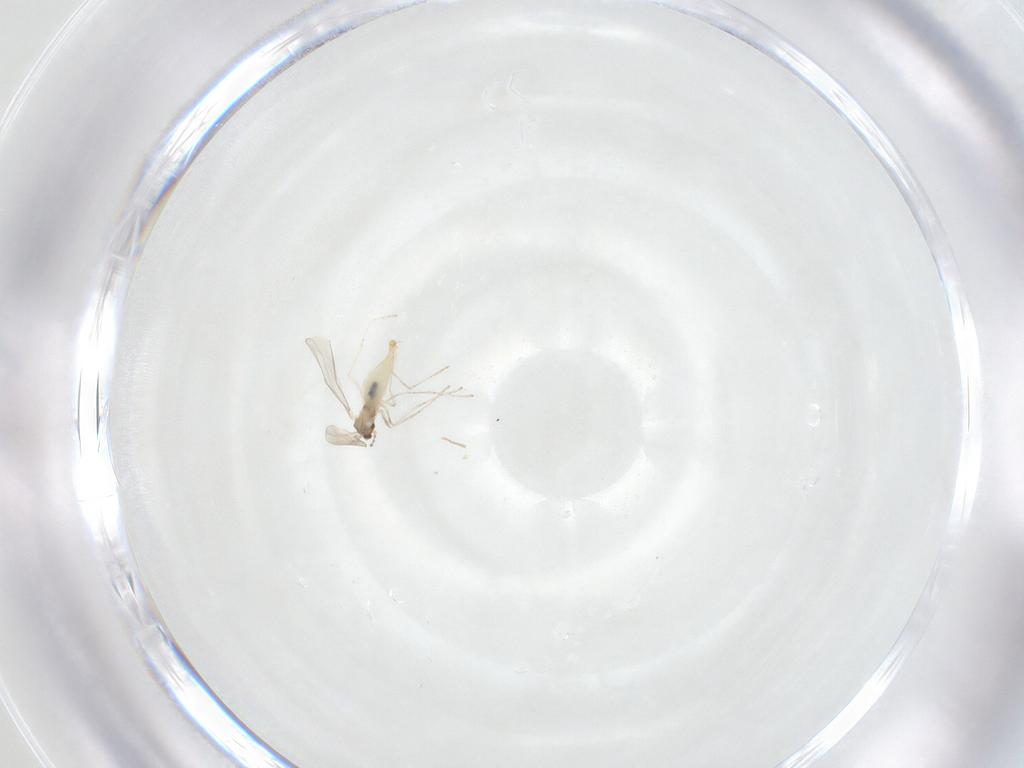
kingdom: Animalia
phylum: Arthropoda
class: Insecta
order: Diptera
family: Cecidomyiidae
